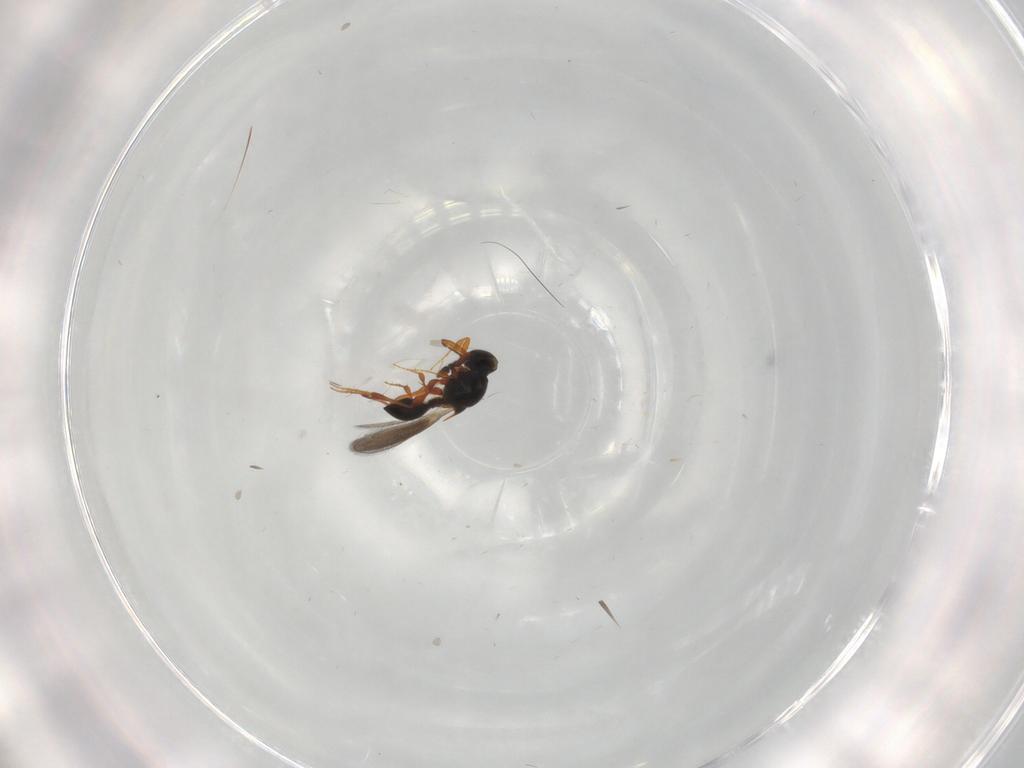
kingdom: Animalia
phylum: Arthropoda
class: Insecta
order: Hymenoptera
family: Platygastridae
